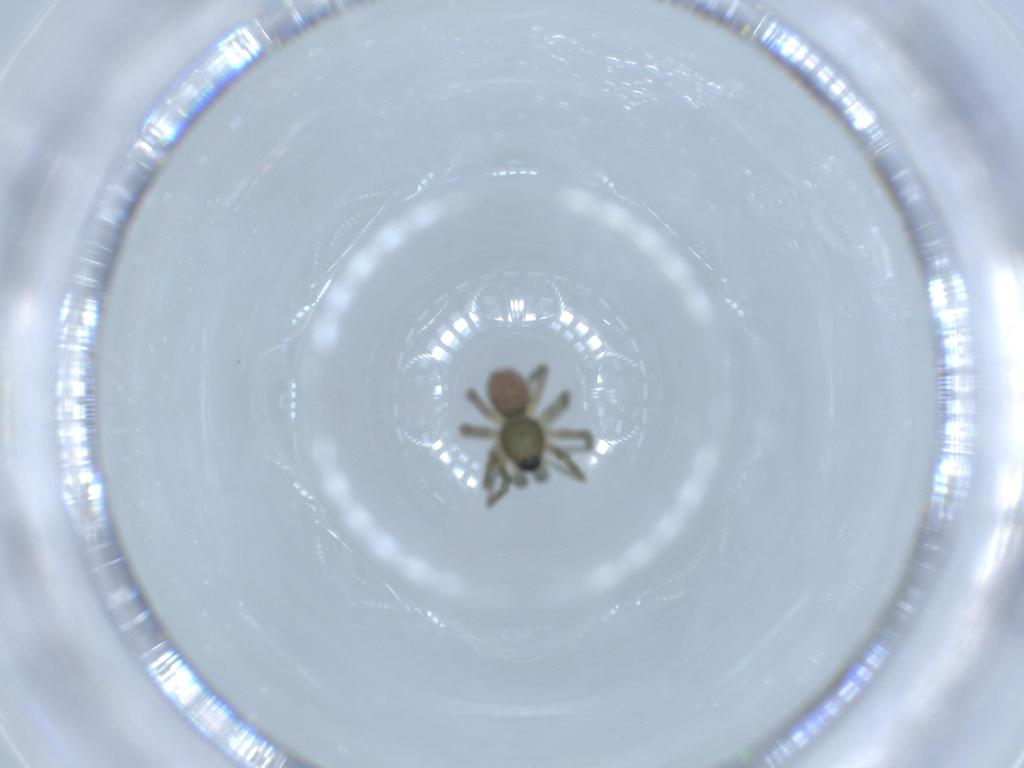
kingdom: Animalia
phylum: Arthropoda
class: Arachnida
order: Araneae
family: Linyphiidae
